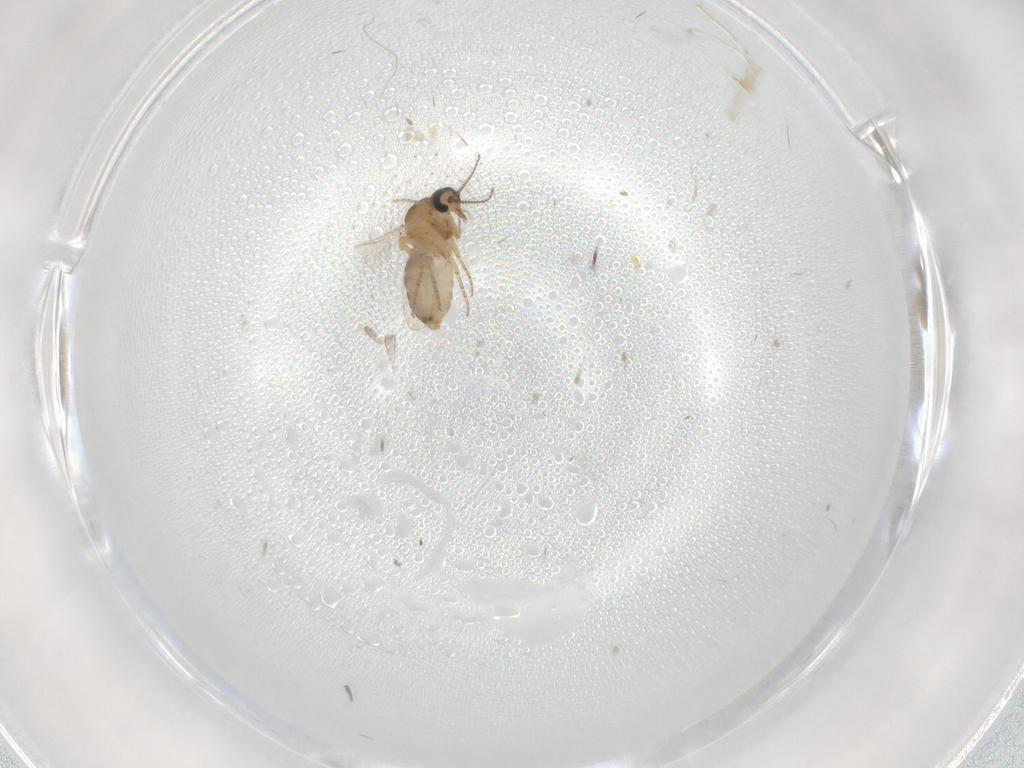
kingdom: Animalia
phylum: Arthropoda
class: Insecta
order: Diptera
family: Ceratopogonidae
